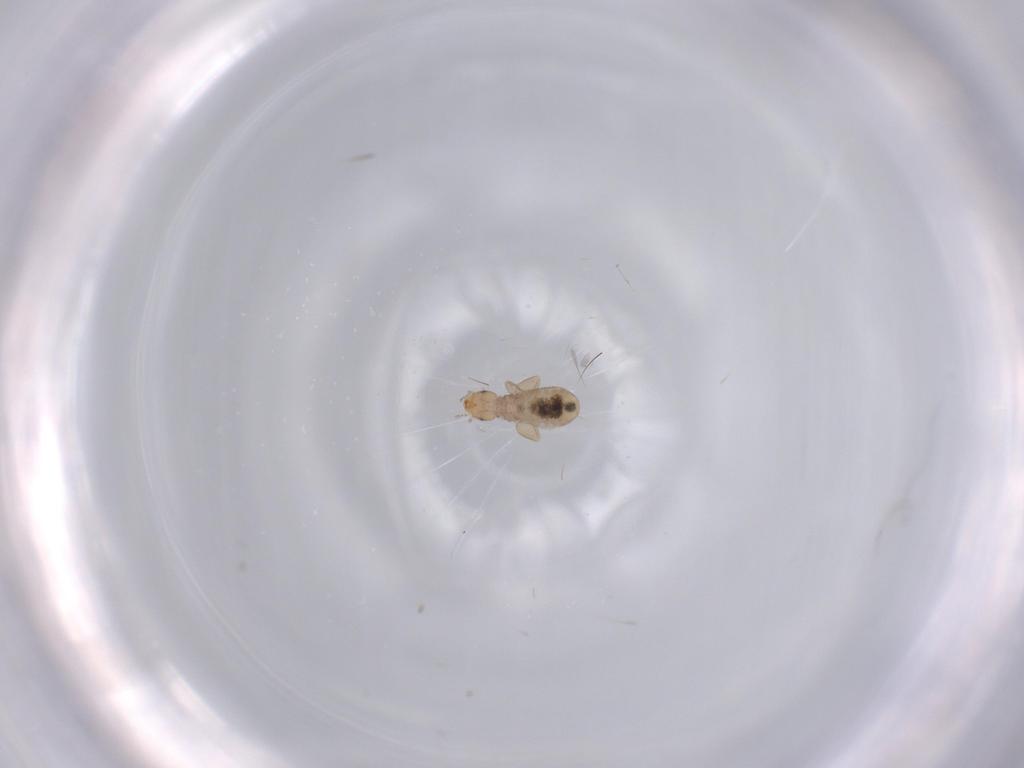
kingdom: Animalia
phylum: Arthropoda
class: Insecta
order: Psocodea
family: Liposcelididae
